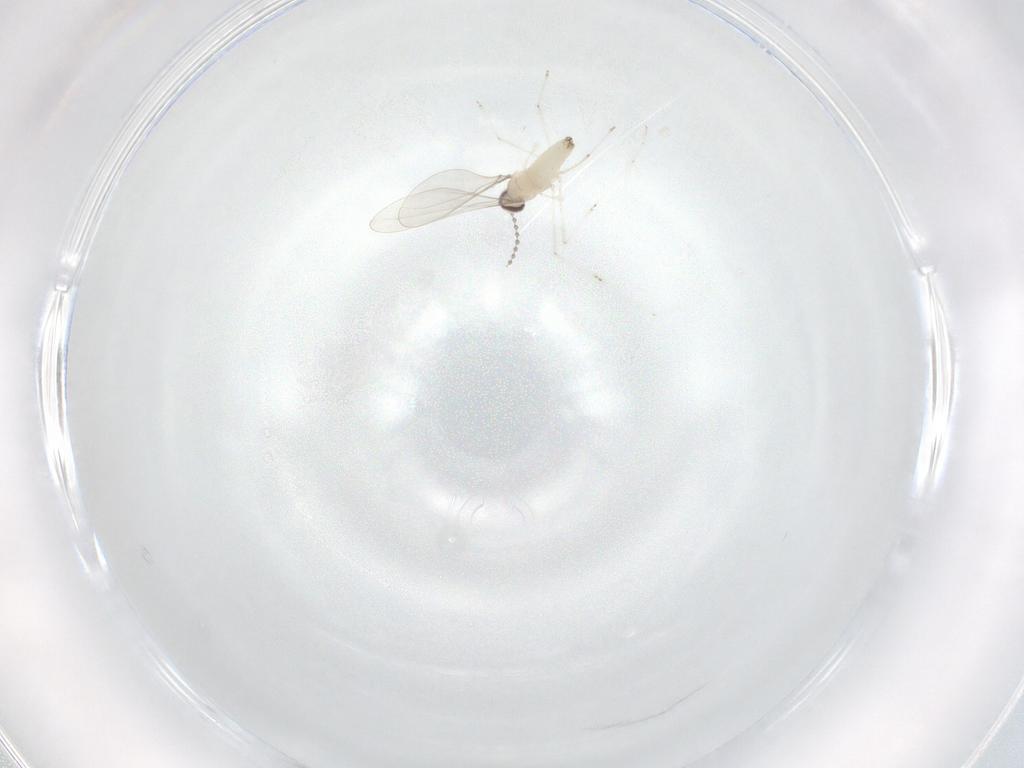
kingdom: Animalia
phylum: Arthropoda
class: Insecta
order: Diptera
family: Cecidomyiidae
